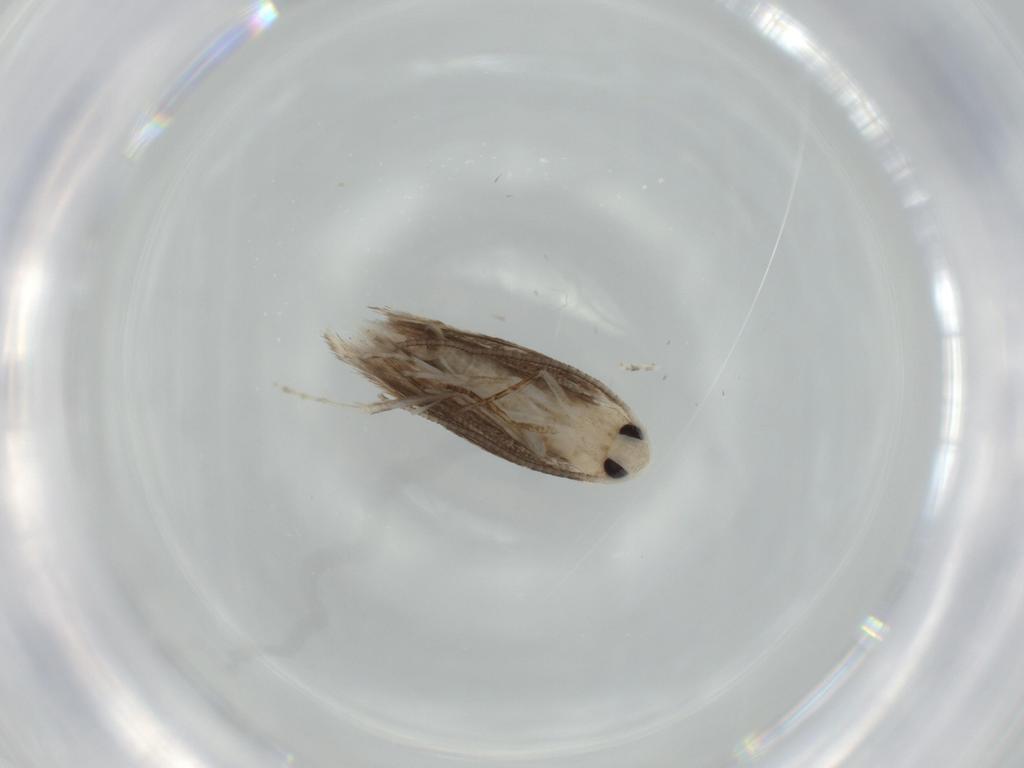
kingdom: Animalia
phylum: Arthropoda
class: Insecta
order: Lepidoptera
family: Lyonetiidae
